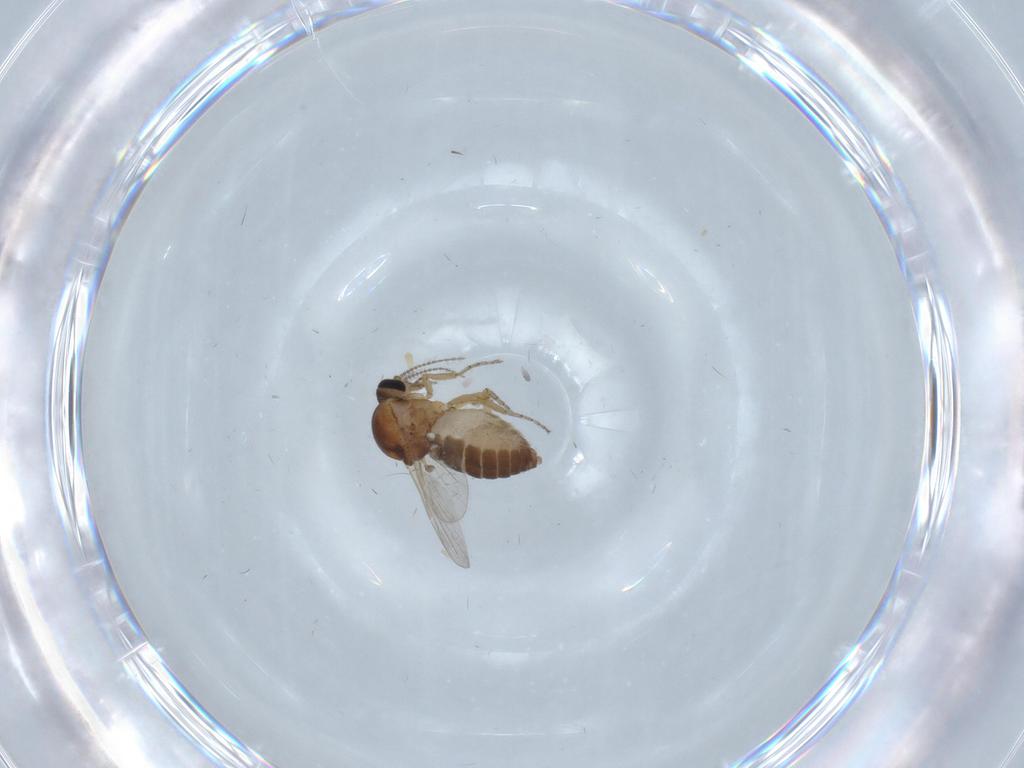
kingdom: Animalia
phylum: Arthropoda
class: Insecta
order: Diptera
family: Ceratopogonidae
